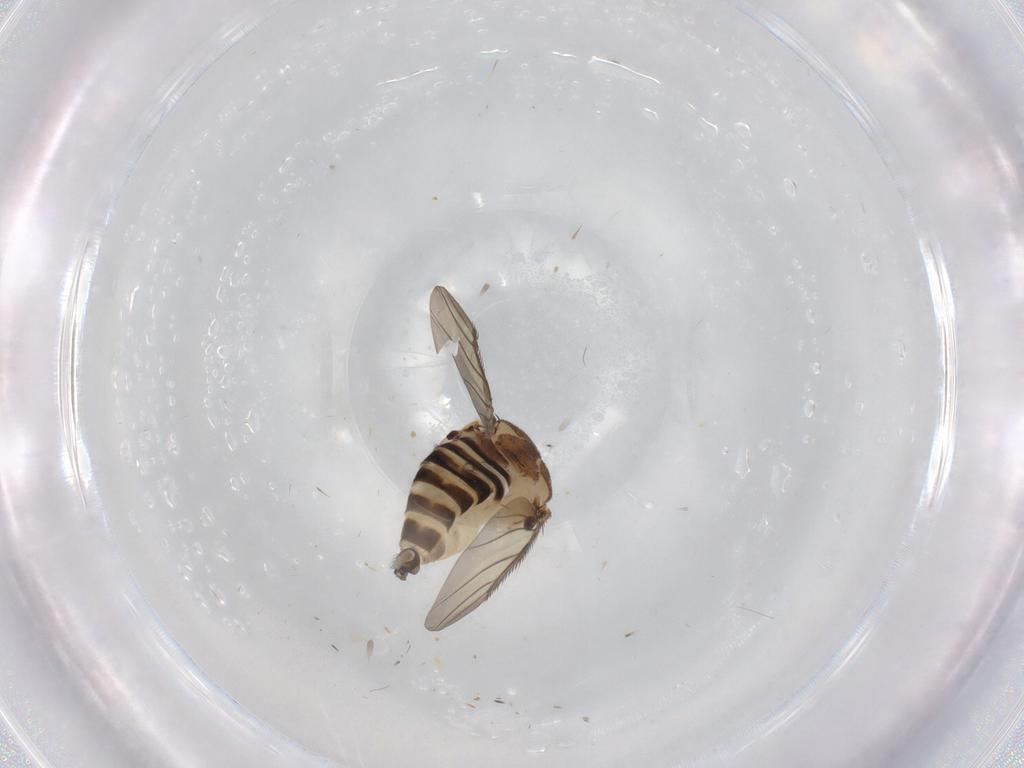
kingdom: Animalia
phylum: Arthropoda
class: Insecta
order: Diptera
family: Phoridae
